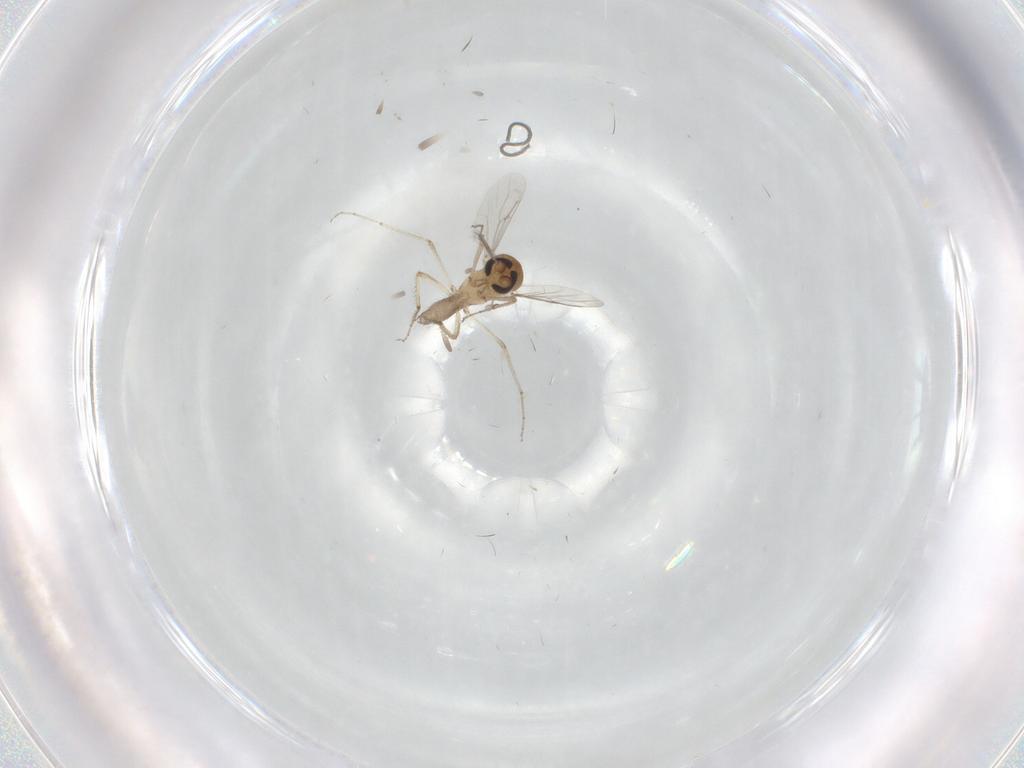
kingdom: Animalia
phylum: Arthropoda
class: Insecta
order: Diptera
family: Ceratopogonidae
